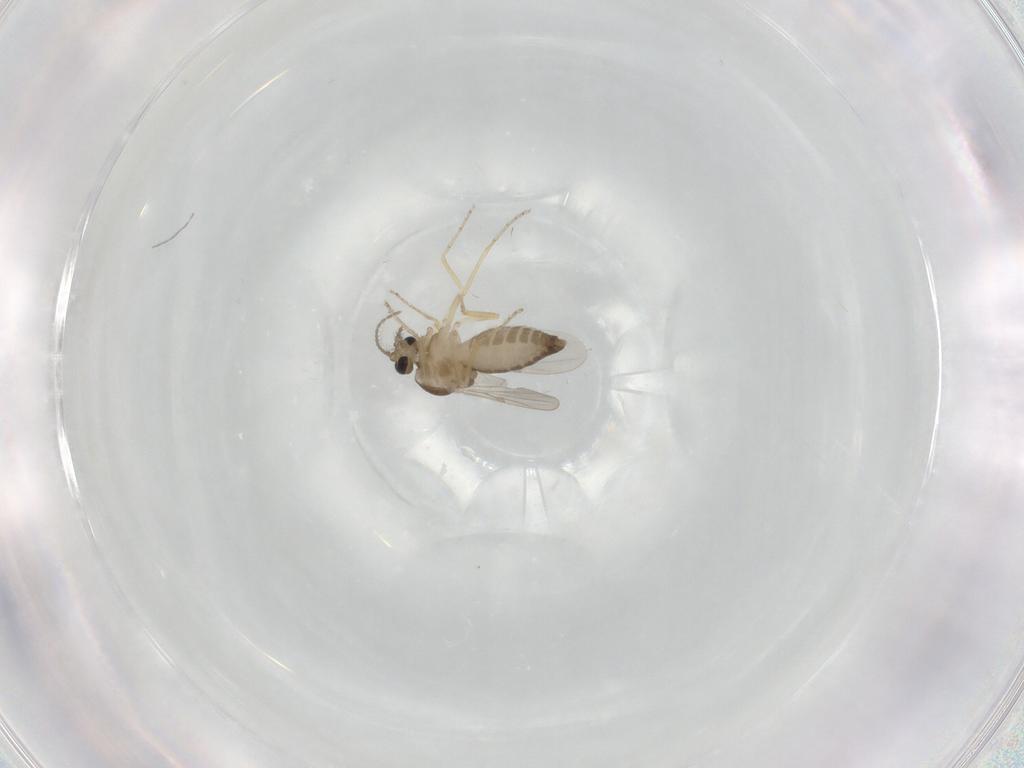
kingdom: Animalia
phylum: Arthropoda
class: Insecta
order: Diptera
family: Ceratopogonidae
